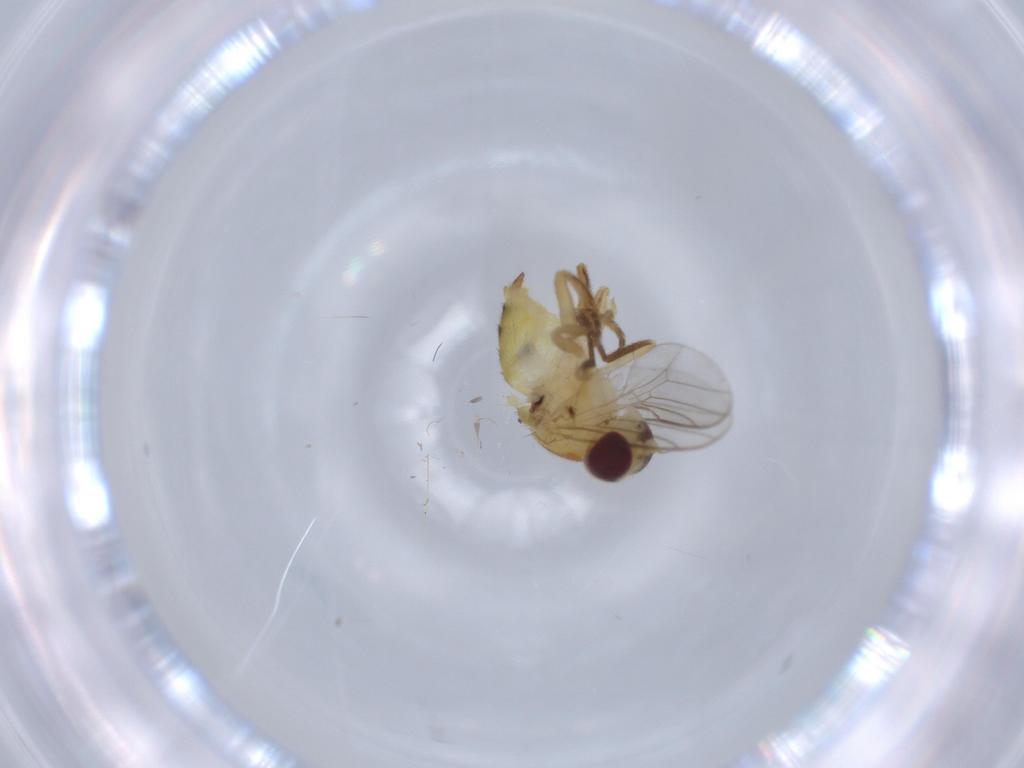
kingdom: Animalia
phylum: Arthropoda
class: Insecta
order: Diptera
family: Chloropidae
